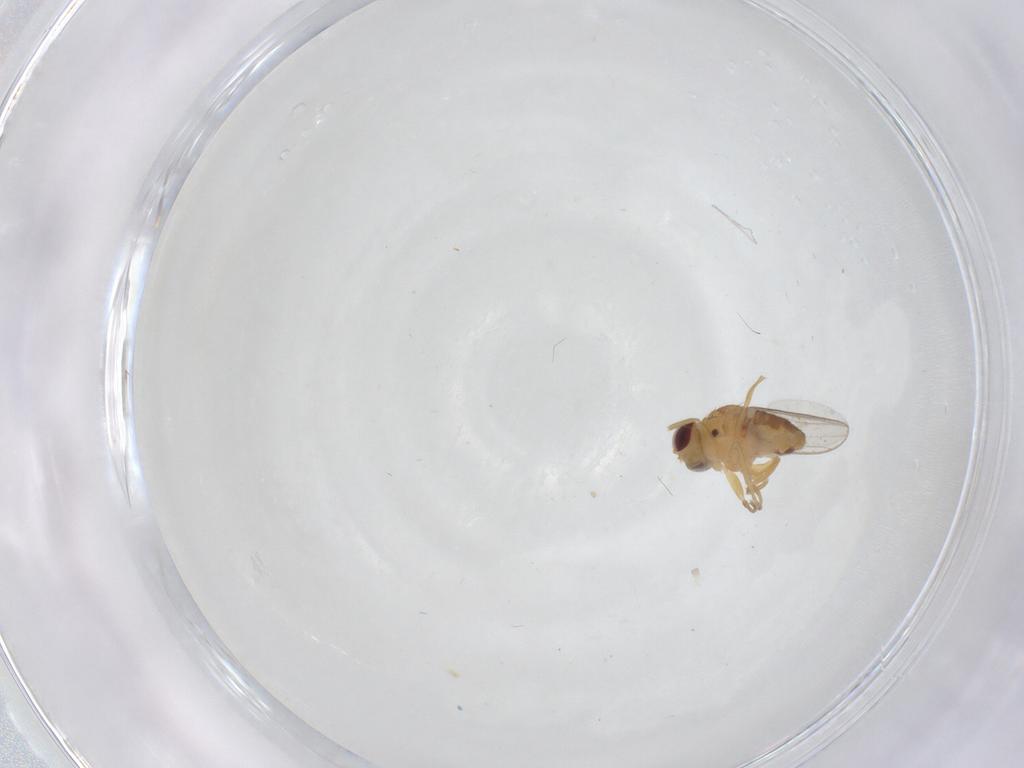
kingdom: Animalia
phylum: Arthropoda
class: Insecta
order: Diptera
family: Chloropidae
